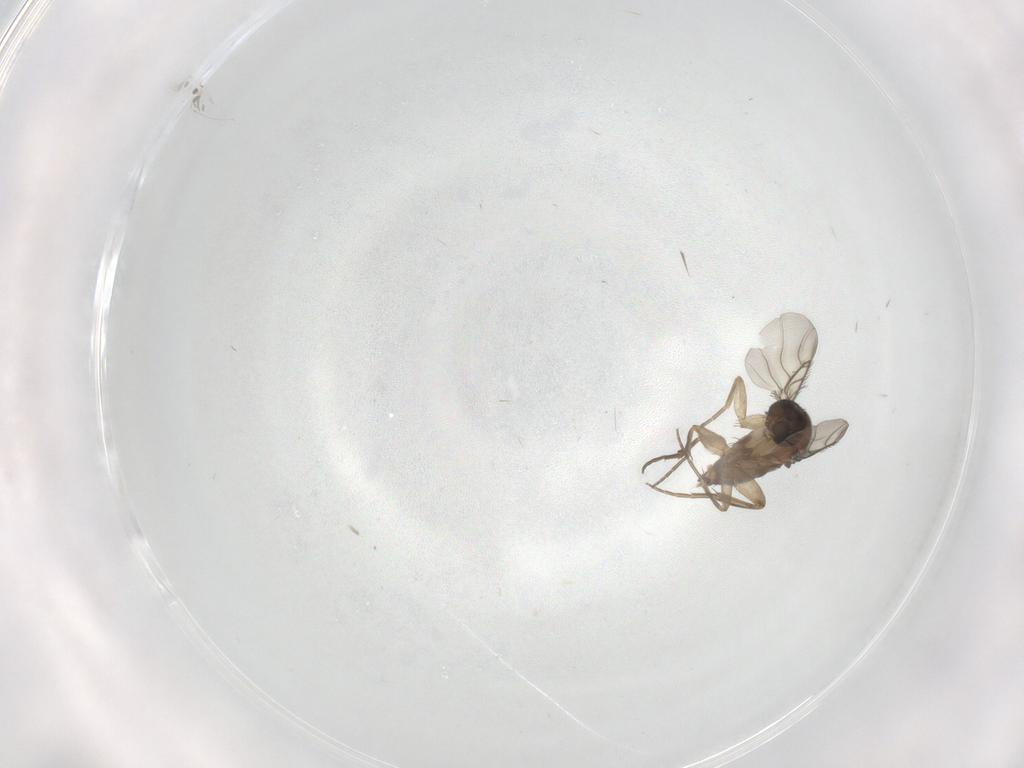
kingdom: Animalia
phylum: Arthropoda
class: Insecta
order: Diptera
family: Phoridae
